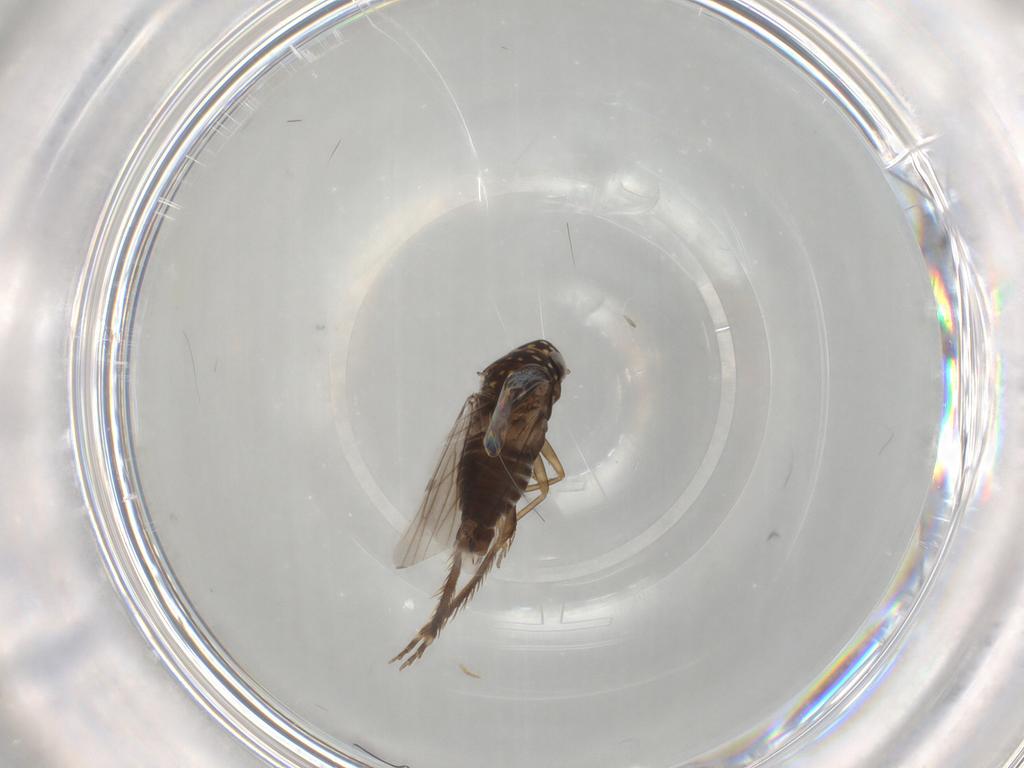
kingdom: Animalia
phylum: Arthropoda
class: Insecta
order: Hemiptera
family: Cicadellidae
